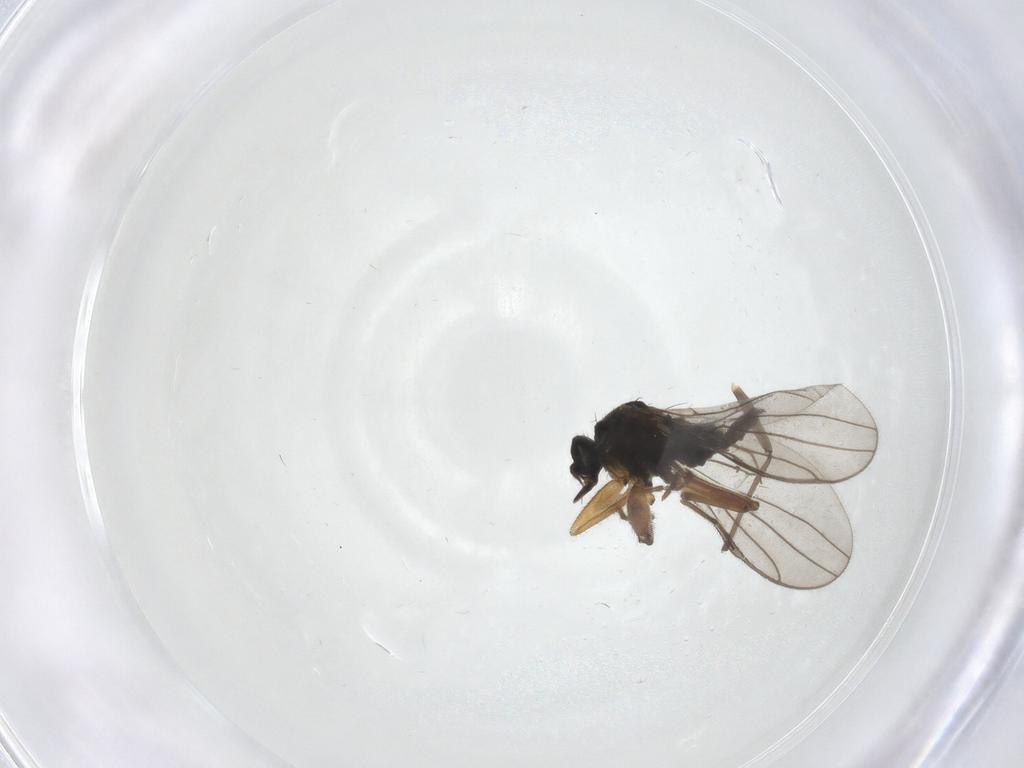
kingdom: Animalia
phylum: Arthropoda
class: Insecta
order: Diptera
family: Hybotidae
